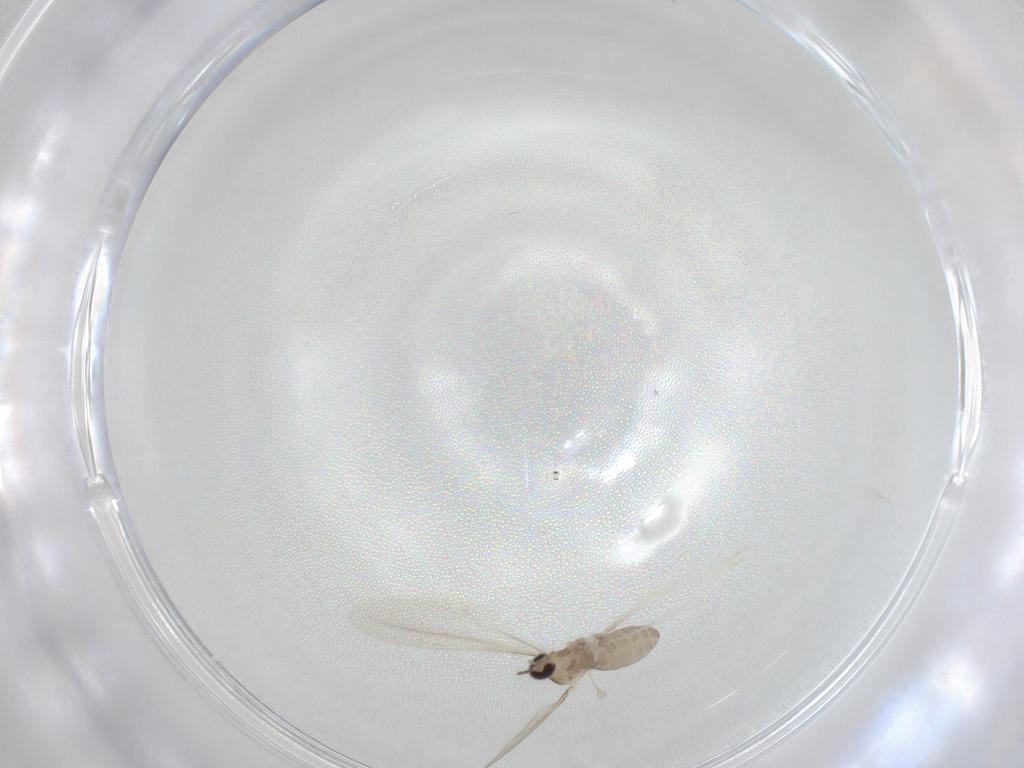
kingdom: Animalia
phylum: Arthropoda
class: Insecta
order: Diptera
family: Cecidomyiidae
